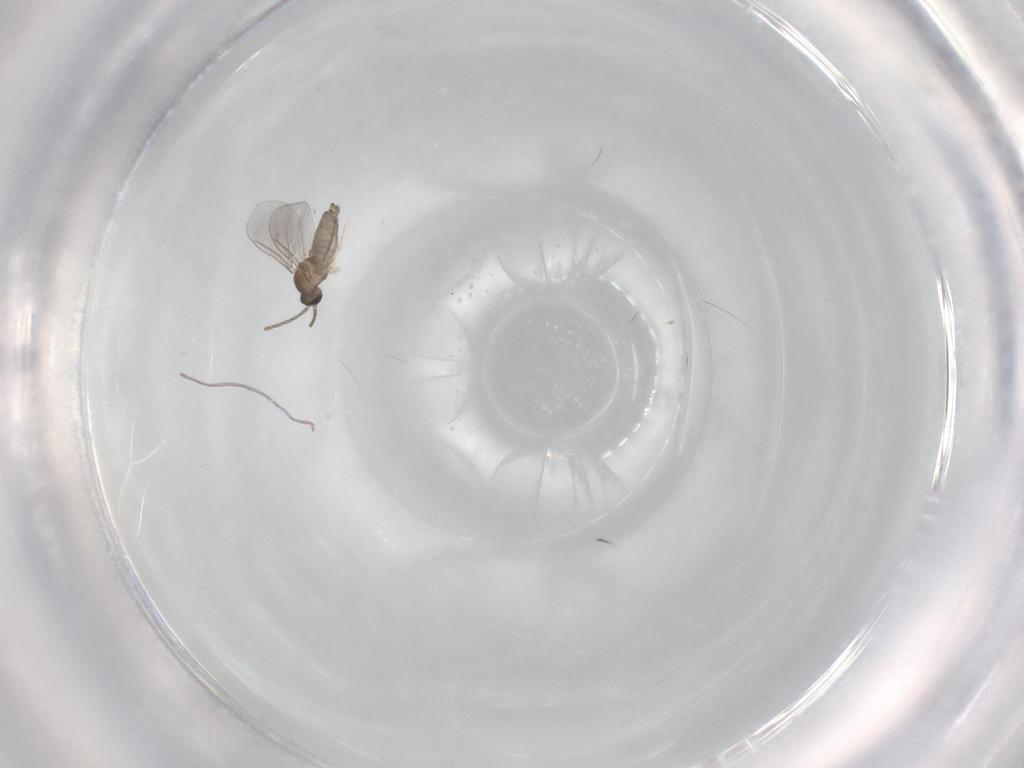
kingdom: Animalia
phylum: Arthropoda
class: Insecta
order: Diptera
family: Cecidomyiidae
